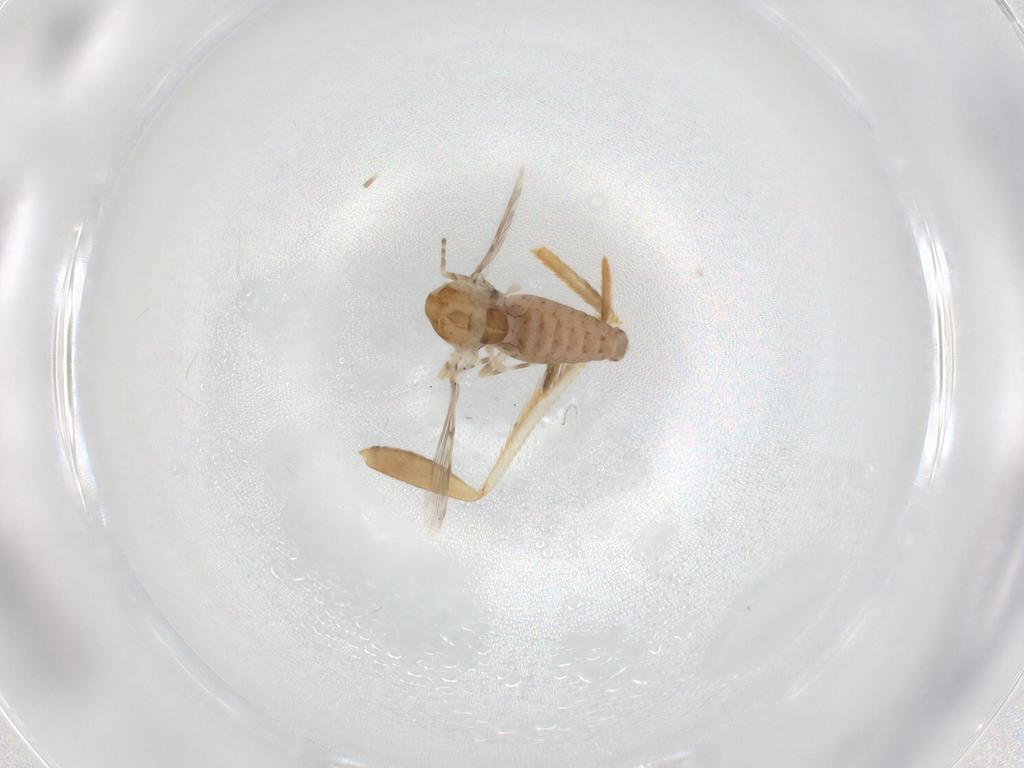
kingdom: Animalia
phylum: Arthropoda
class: Insecta
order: Diptera
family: Chironomidae
